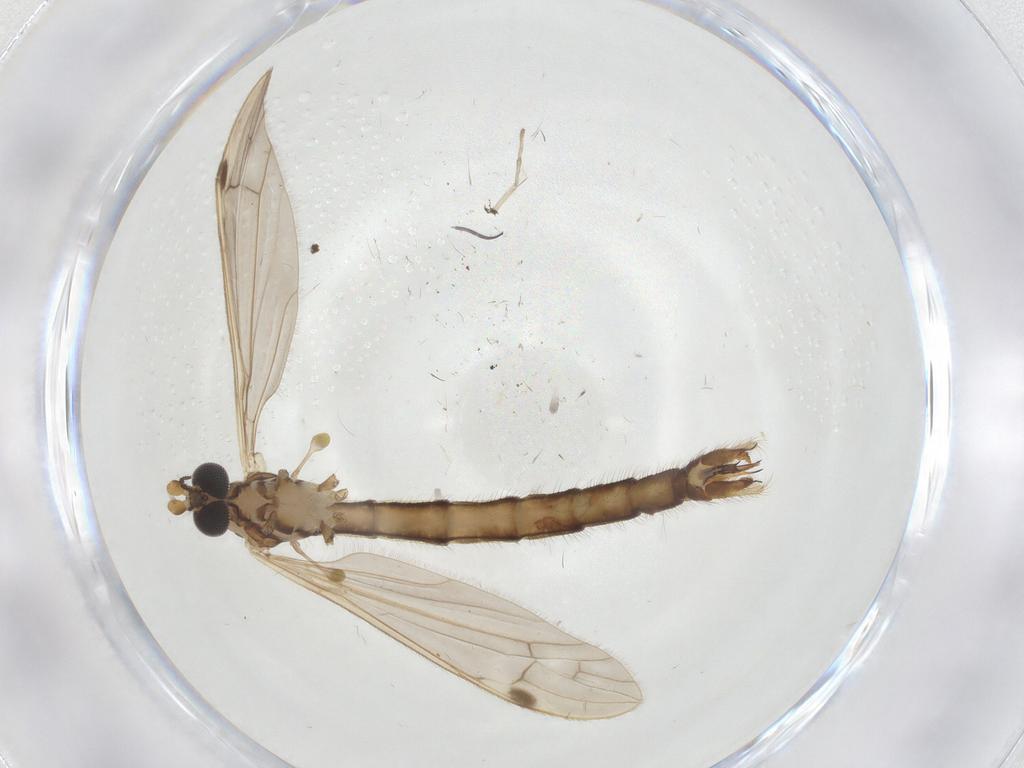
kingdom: Animalia
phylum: Arthropoda
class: Insecta
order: Diptera
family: Limoniidae
